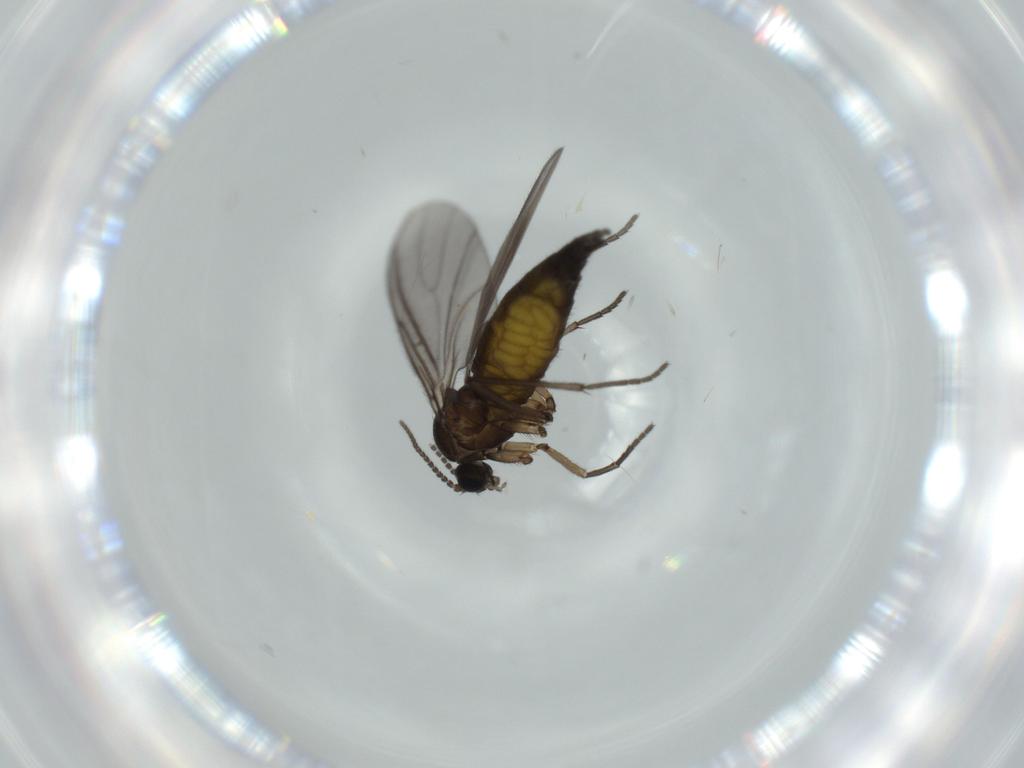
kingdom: Animalia
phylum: Arthropoda
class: Insecta
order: Diptera
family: Sciaridae
